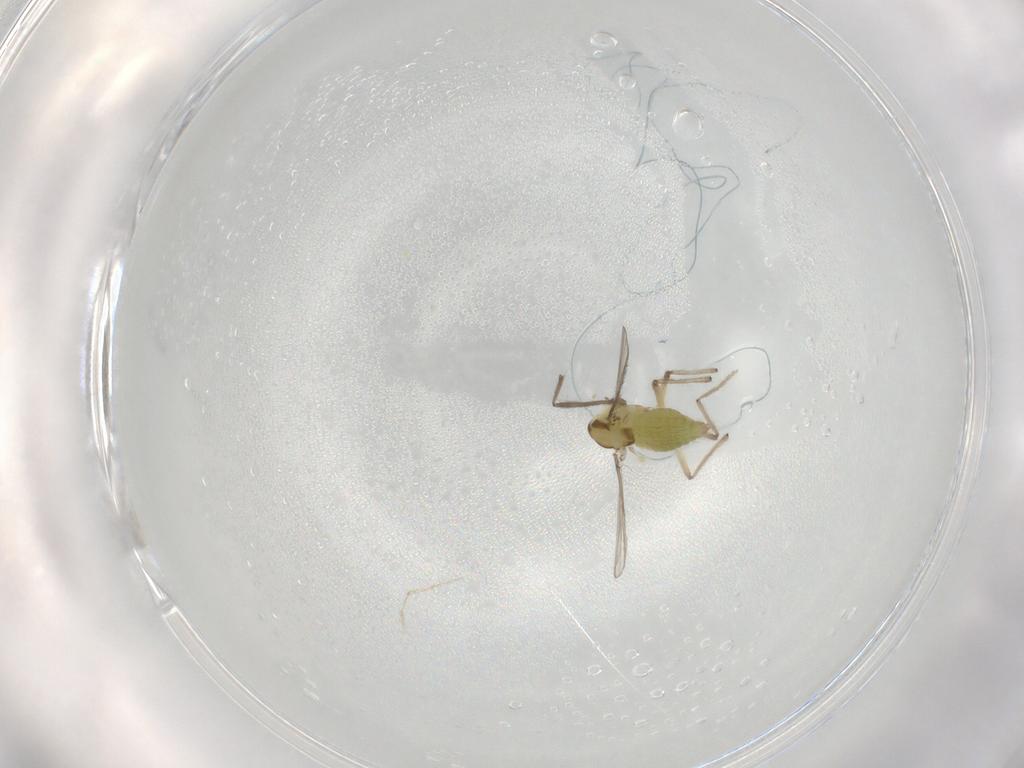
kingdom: Animalia
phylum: Arthropoda
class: Insecta
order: Diptera
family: Chironomidae
